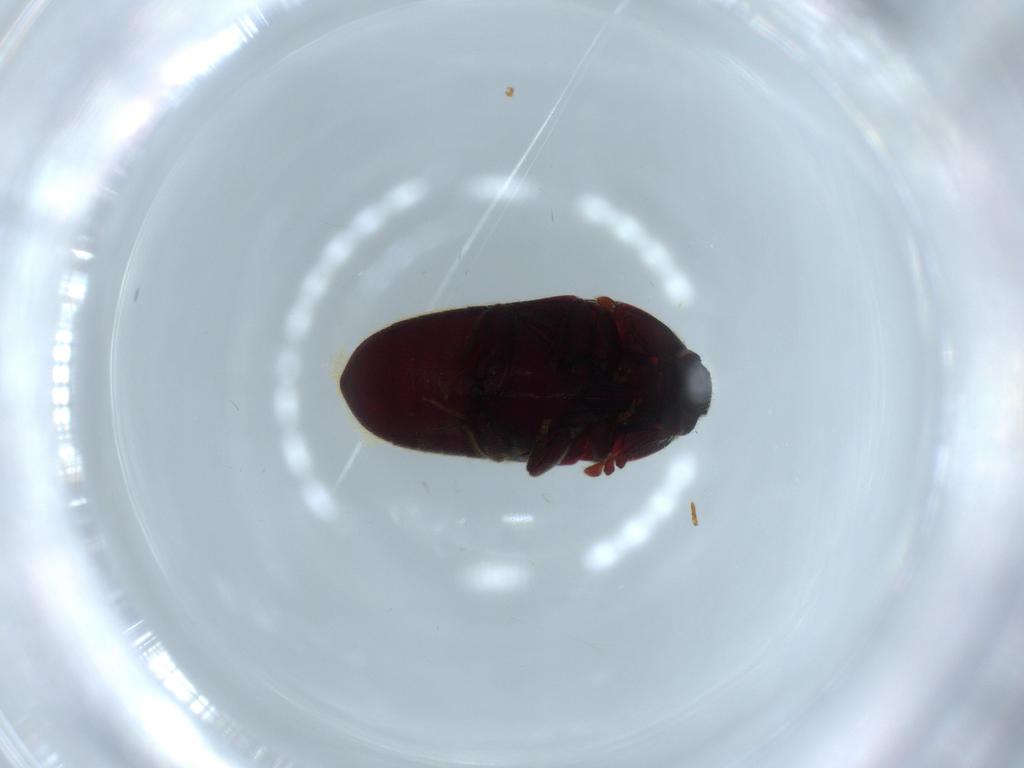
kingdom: Animalia
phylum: Arthropoda
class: Insecta
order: Coleoptera
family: Throscidae
